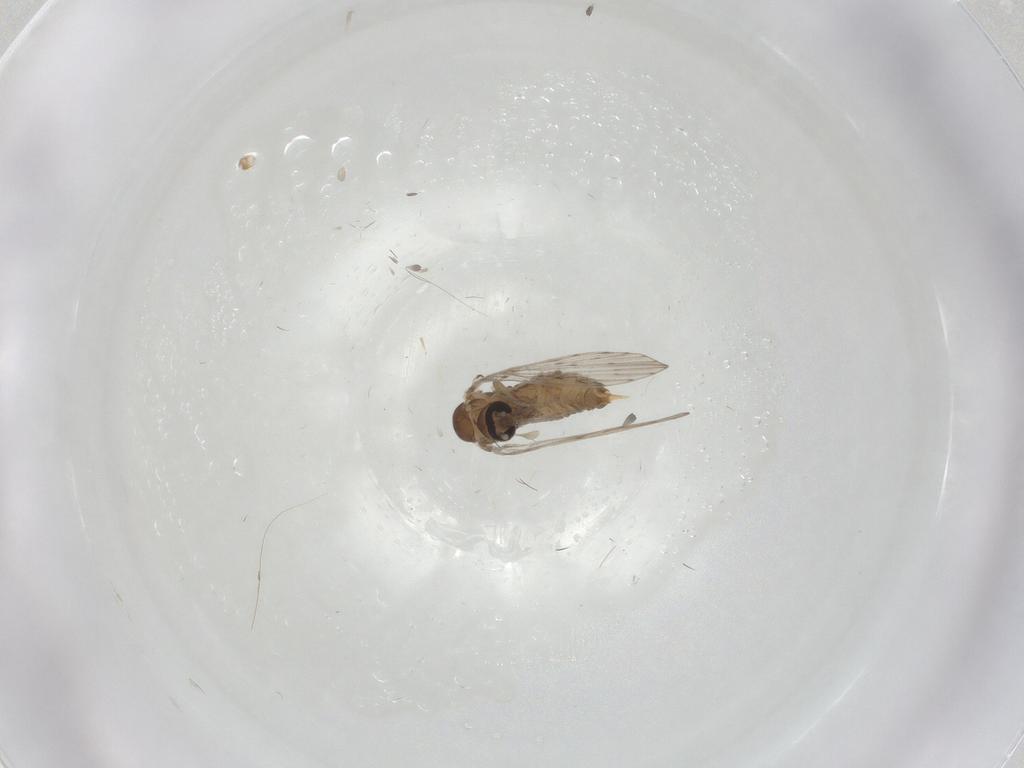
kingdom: Animalia
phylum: Arthropoda
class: Insecta
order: Diptera
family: Psychodidae
